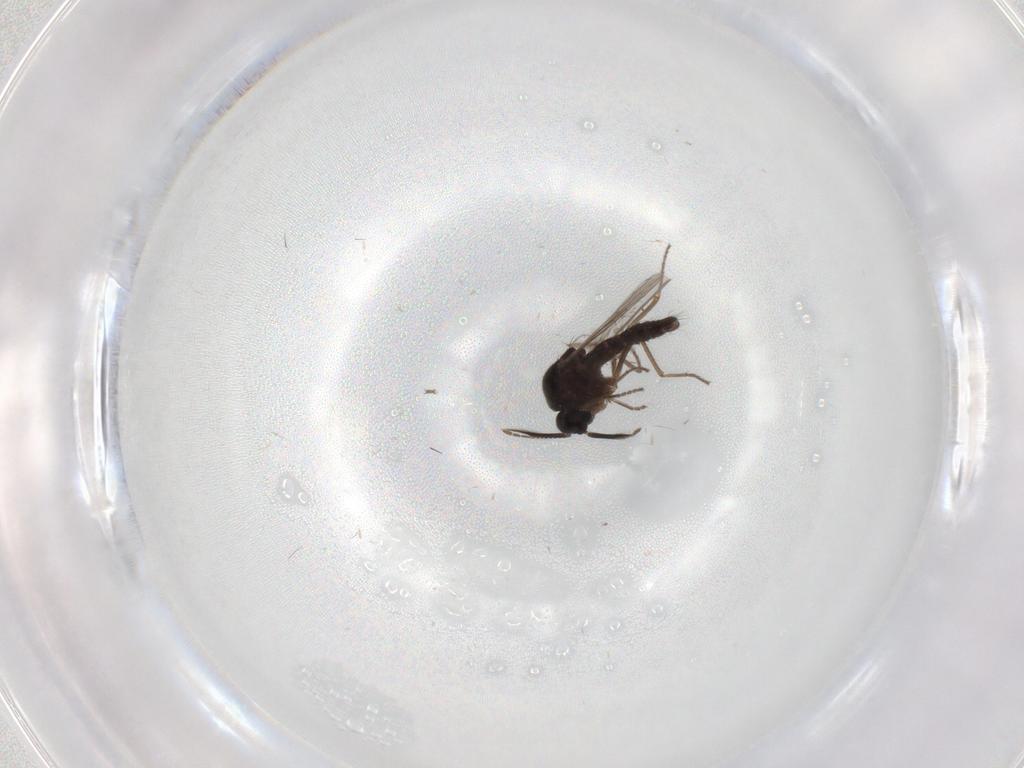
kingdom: Animalia
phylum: Arthropoda
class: Insecta
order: Diptera
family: Ceratopogonidae
